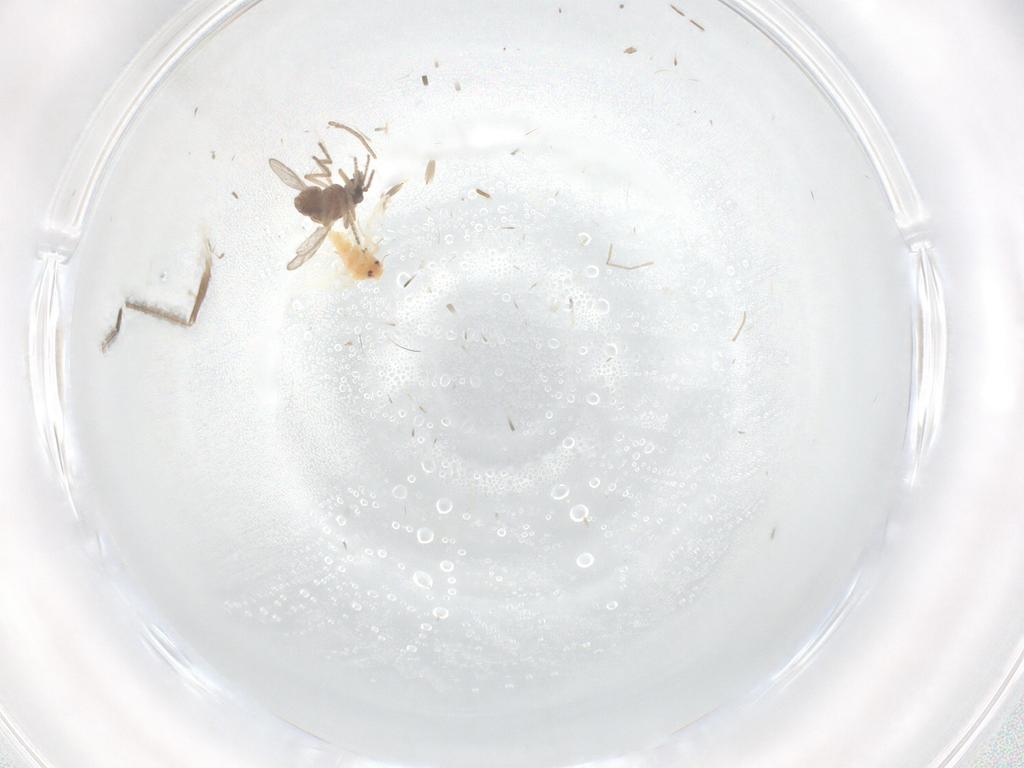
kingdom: Animalia
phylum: Arthropoda
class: Insecta
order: Hemiptera
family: Aleyrodidae
